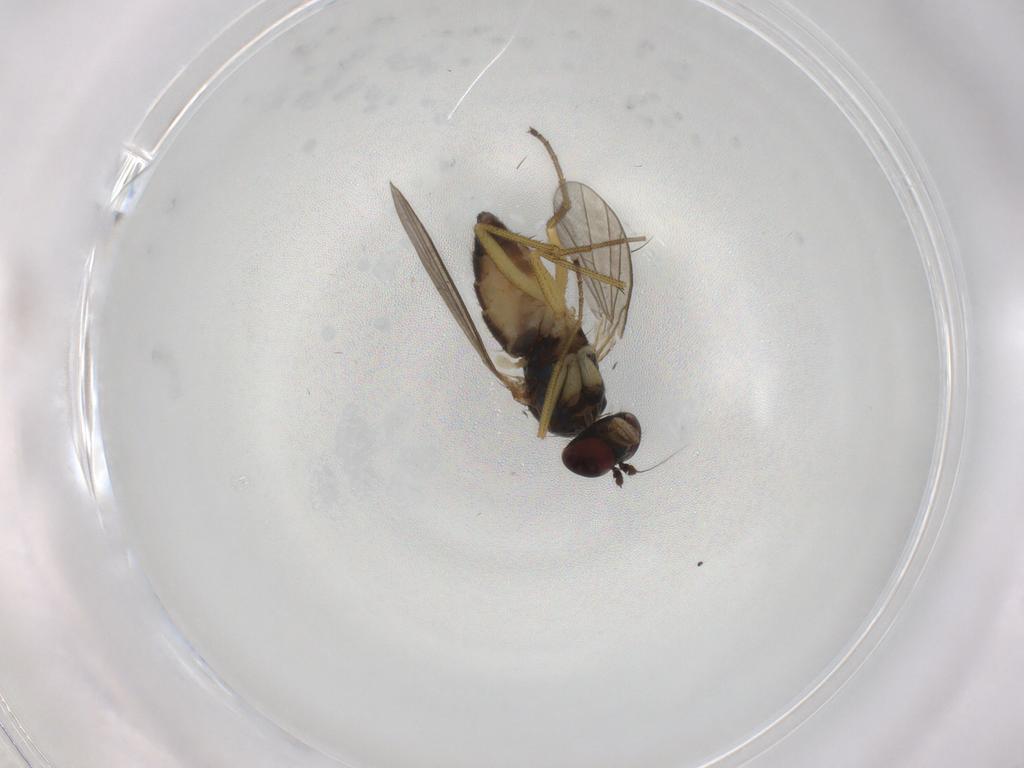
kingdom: Animalia
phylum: Arthropoda
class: Insecta
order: Diptera
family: Dolichopodidae
